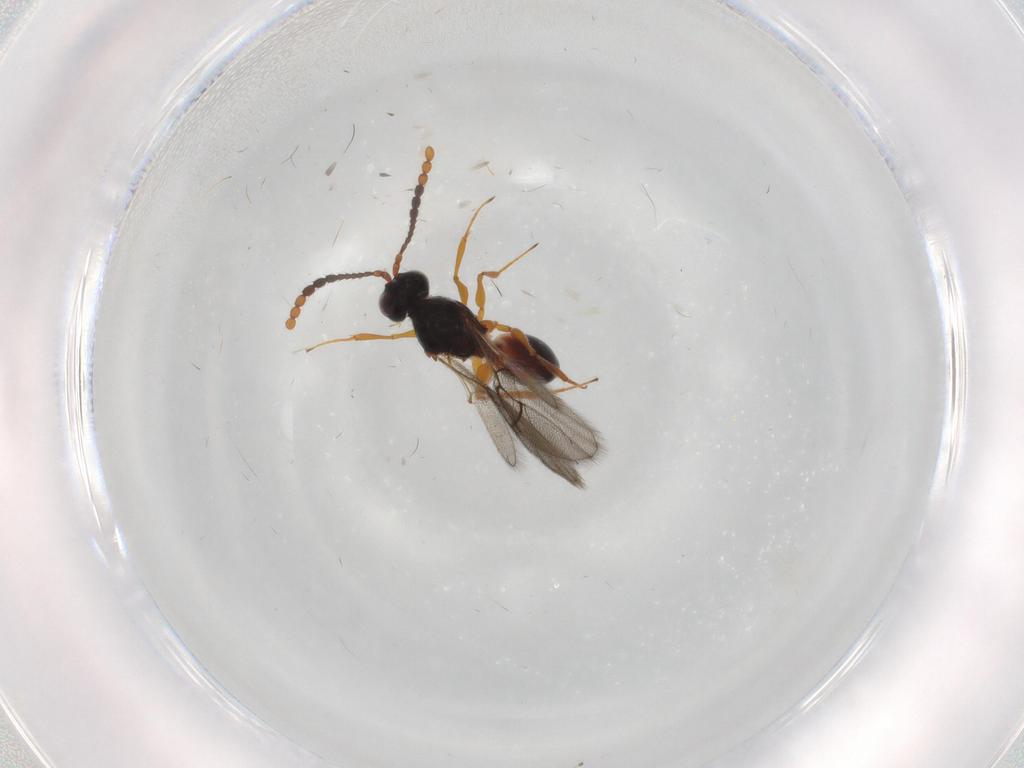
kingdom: Animalia
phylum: Arthropoda
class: Insecta
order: Hymenoptera
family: Figitidae
